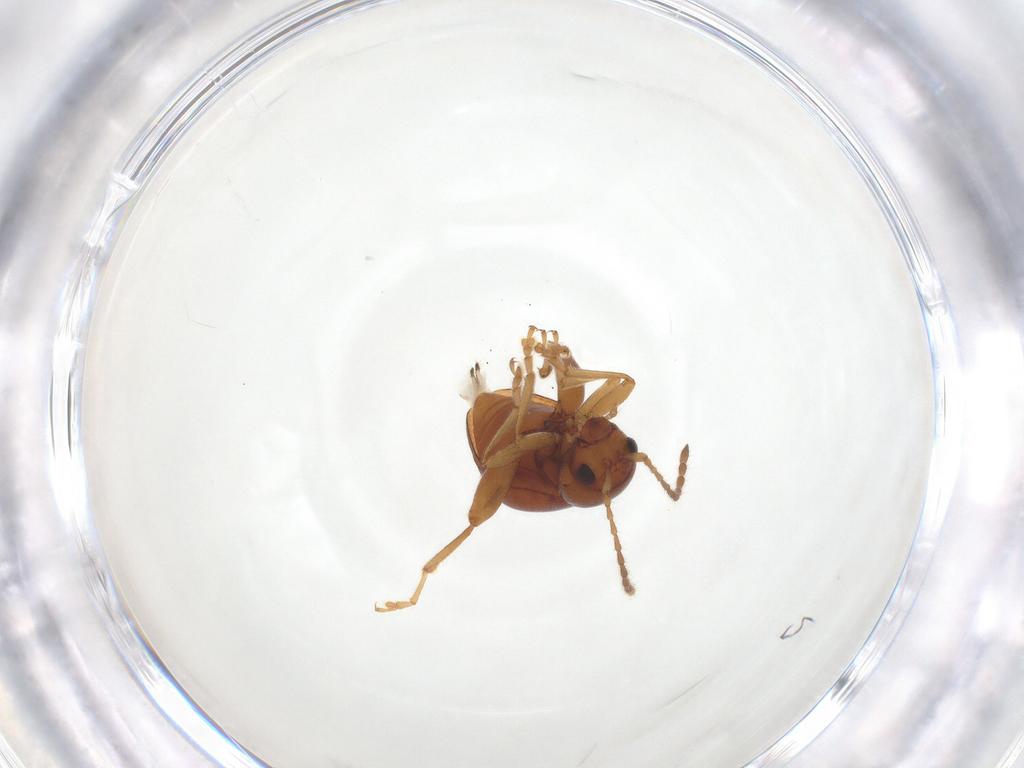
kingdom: Animalia
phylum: Arthropoda
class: Insecta
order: Coleoptera
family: Chrysomelidae
